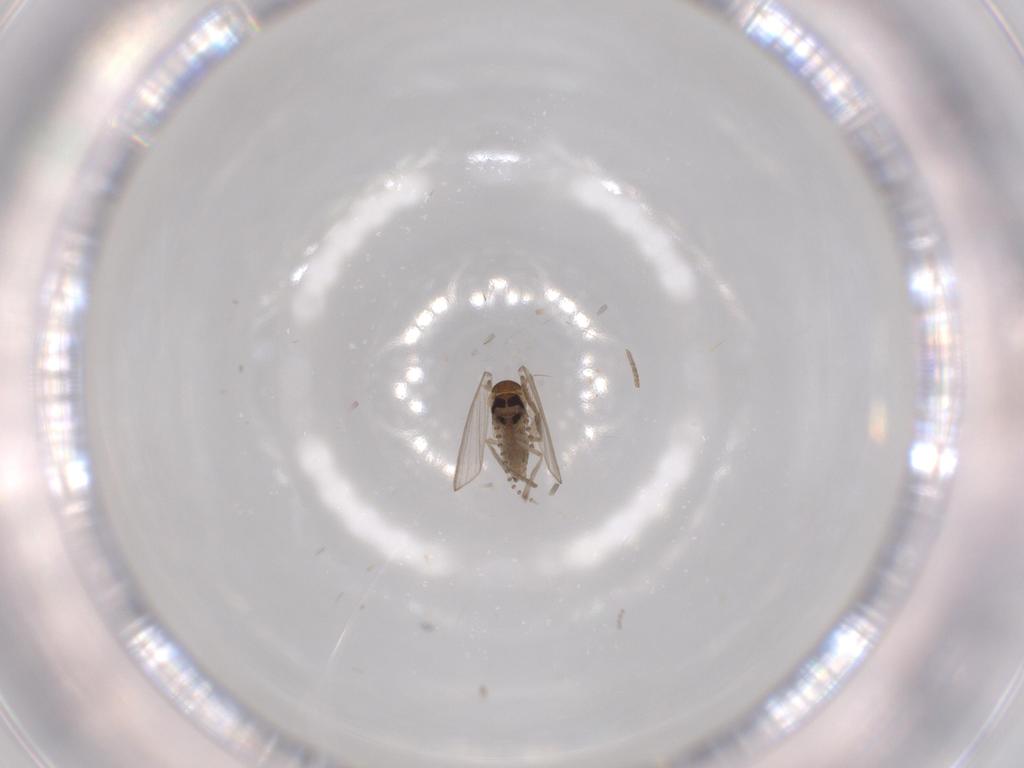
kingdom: Animalia
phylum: Arthropoda
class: Insecta
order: Diptera
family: Psychodidae
